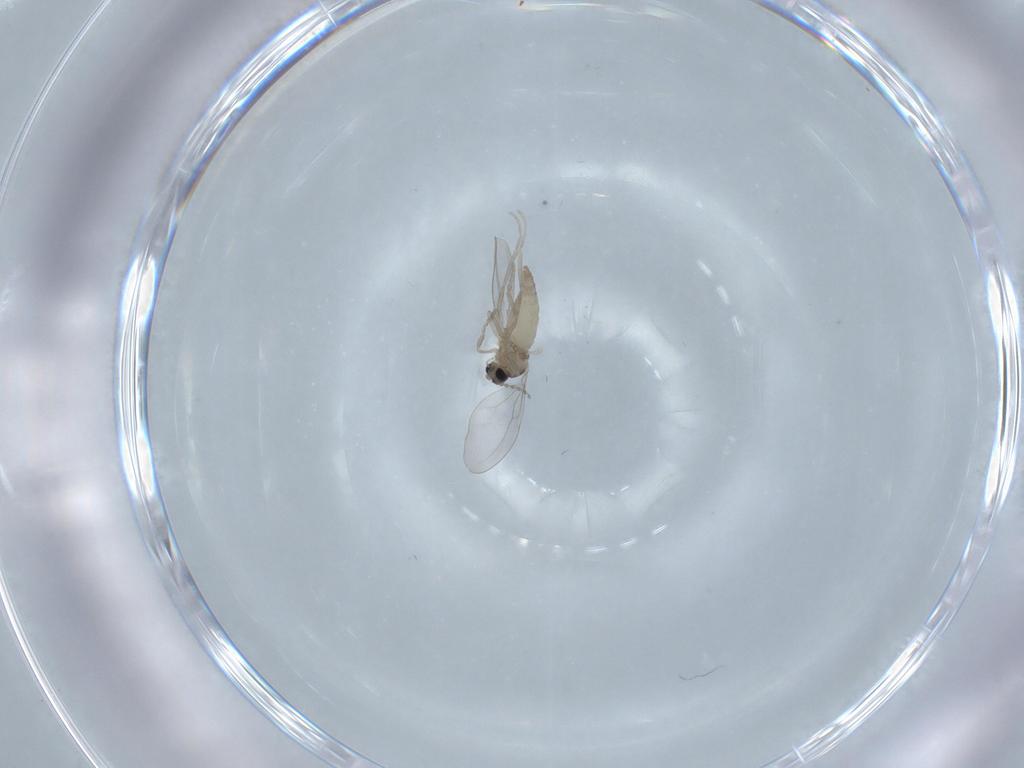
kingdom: Animalia
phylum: Arthropoda
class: Insecta
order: Diptera
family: Cecidomyiidae
